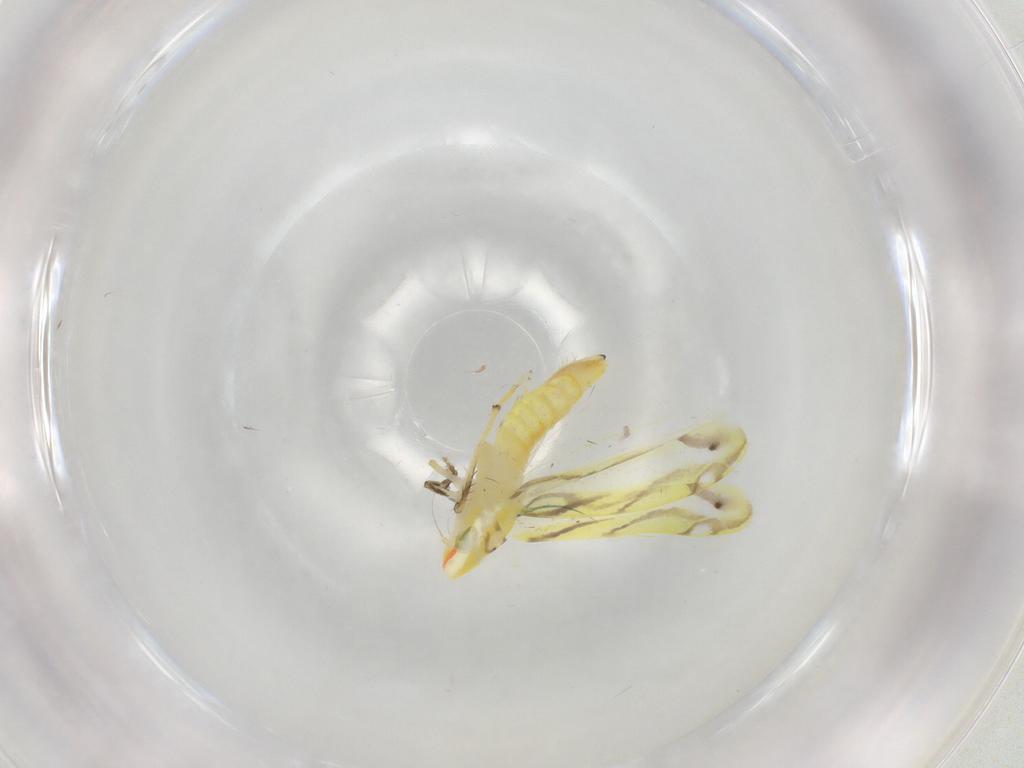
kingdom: Animalia
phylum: Arthropoda
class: Insecta
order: Hemiptera
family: Cicadellidae
